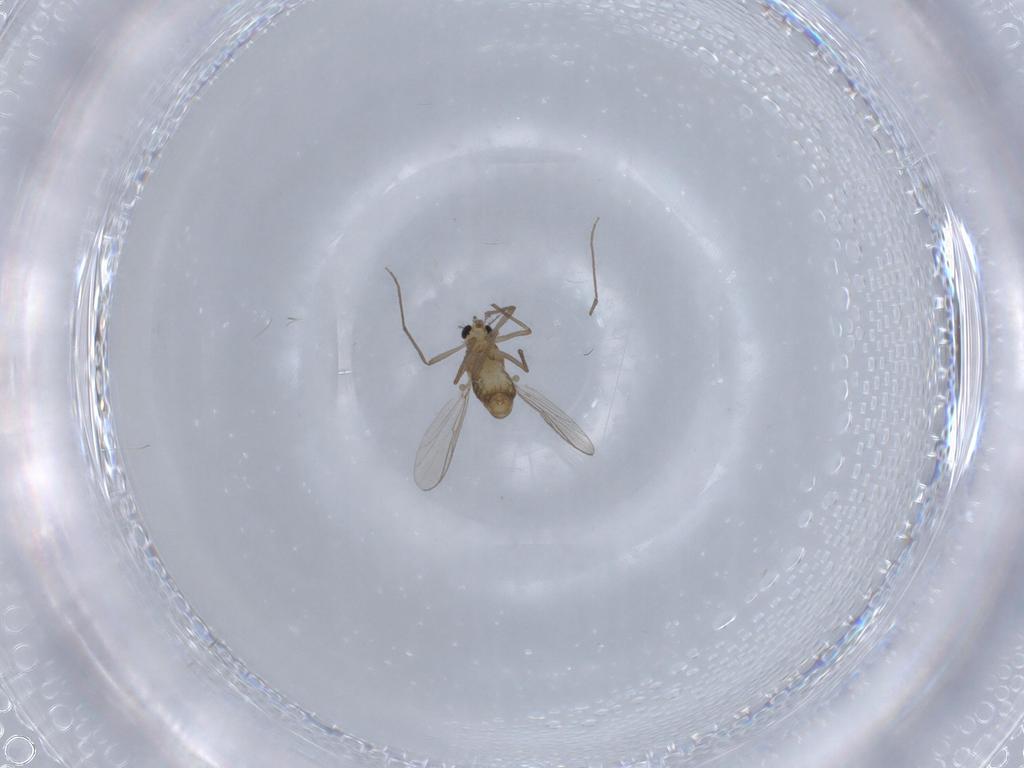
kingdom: Animalia
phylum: Arthropoda
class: Insecta
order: Diptera
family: Chironomidae
